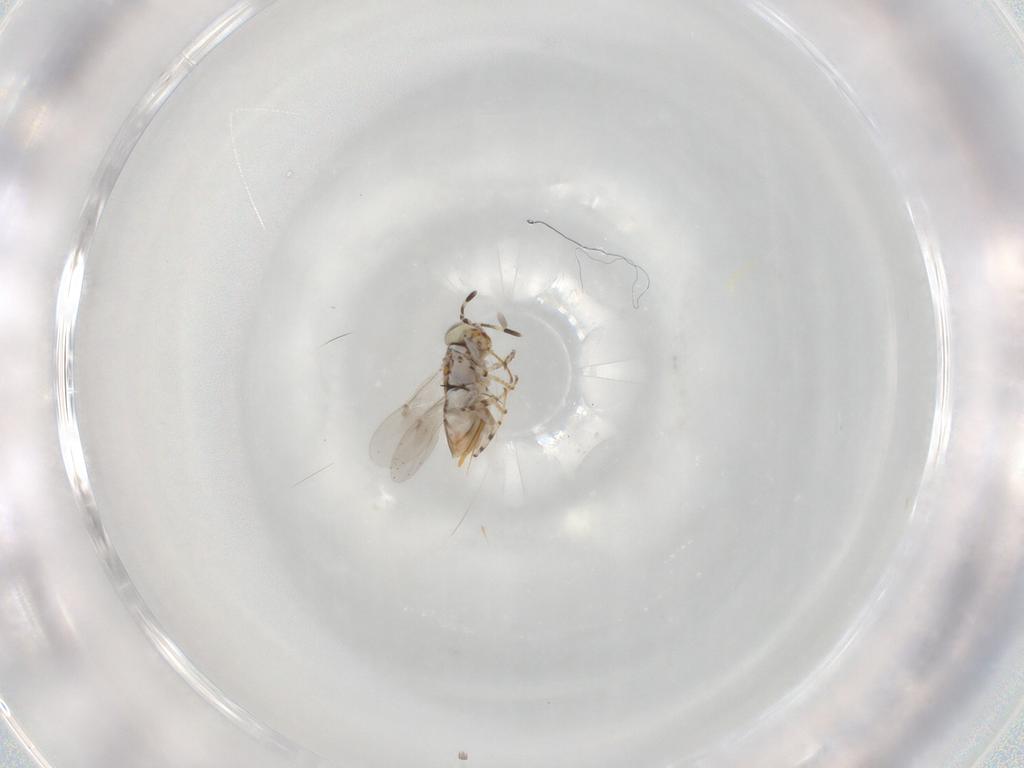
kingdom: Animalia
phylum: Arthropoda
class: Insecta
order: Hymenoptera
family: Encyrtidae
